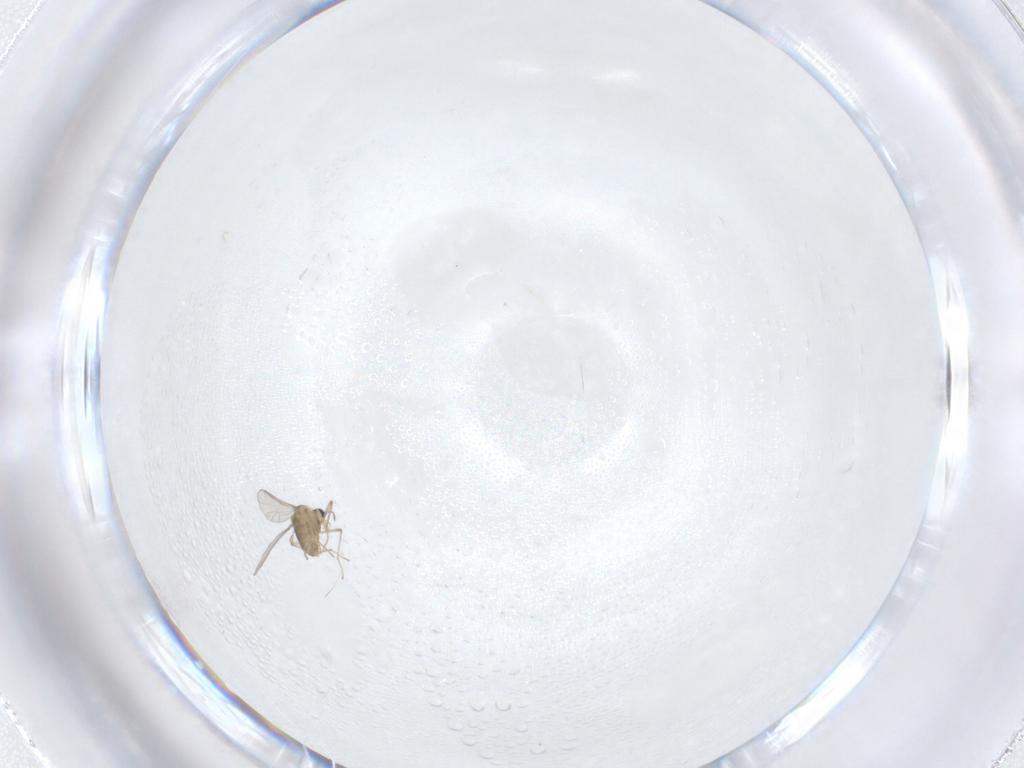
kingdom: Animalia
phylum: Arthropoda
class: Insecta
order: Diptera
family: Chironomidae
